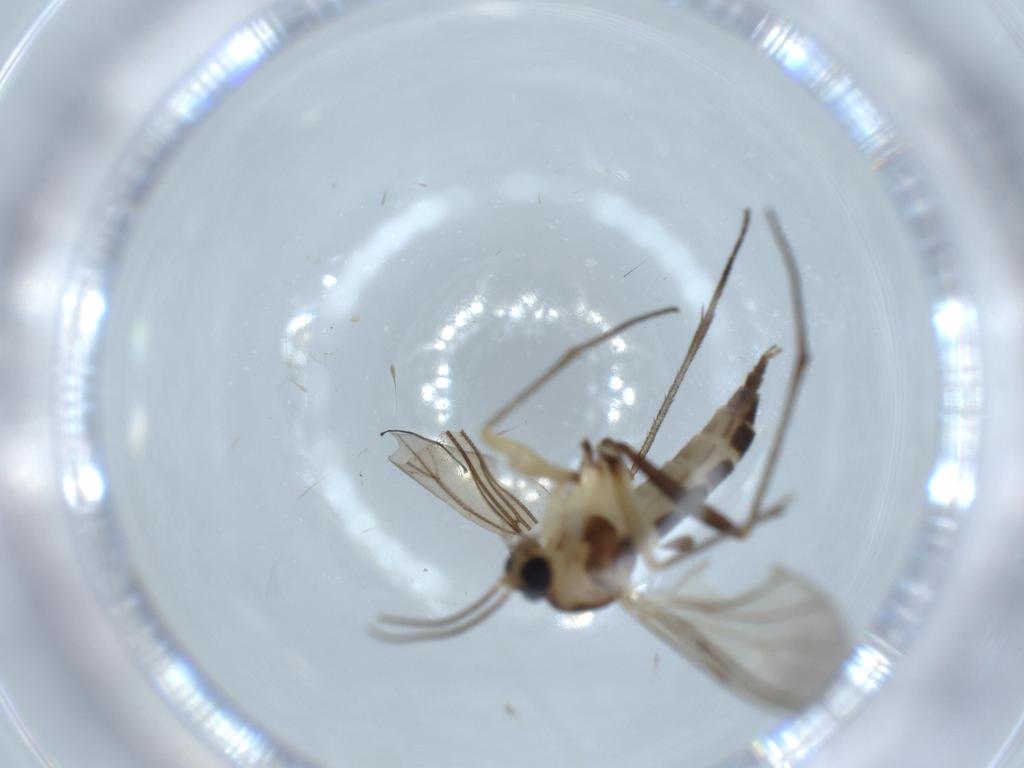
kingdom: Animalia
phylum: Arthropoda
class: Insecta
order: Diptera
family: Sciaridae
